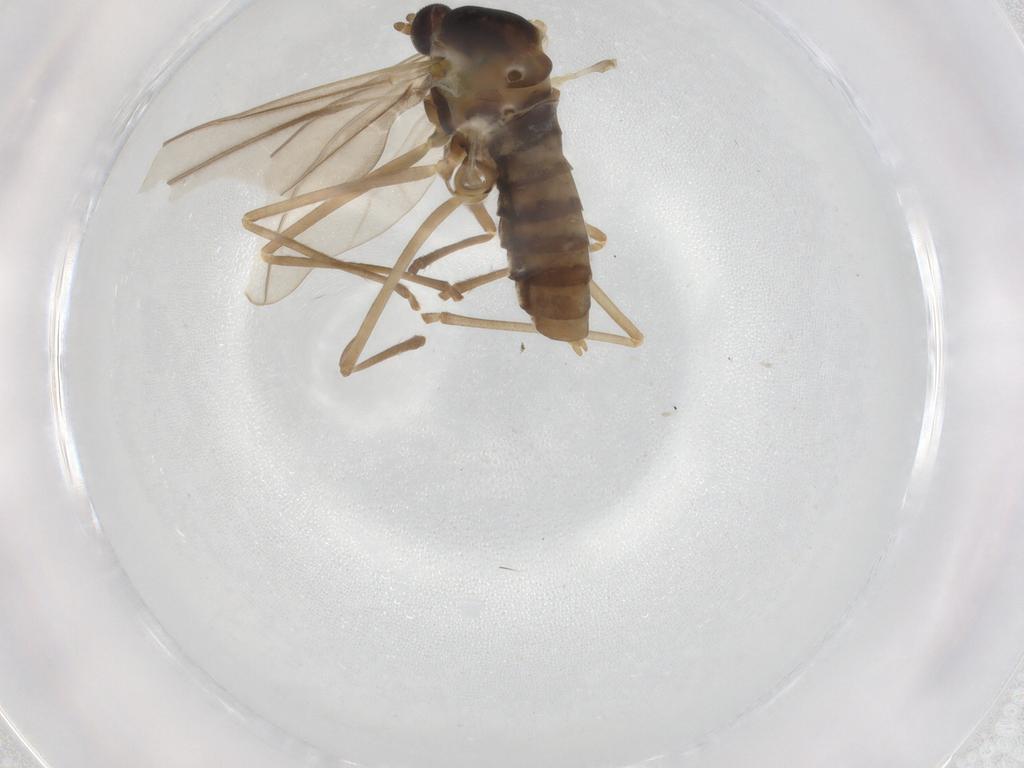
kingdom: Animalia
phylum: Arthropoda
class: Insecta
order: Diptera
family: Cecidomyiidae
